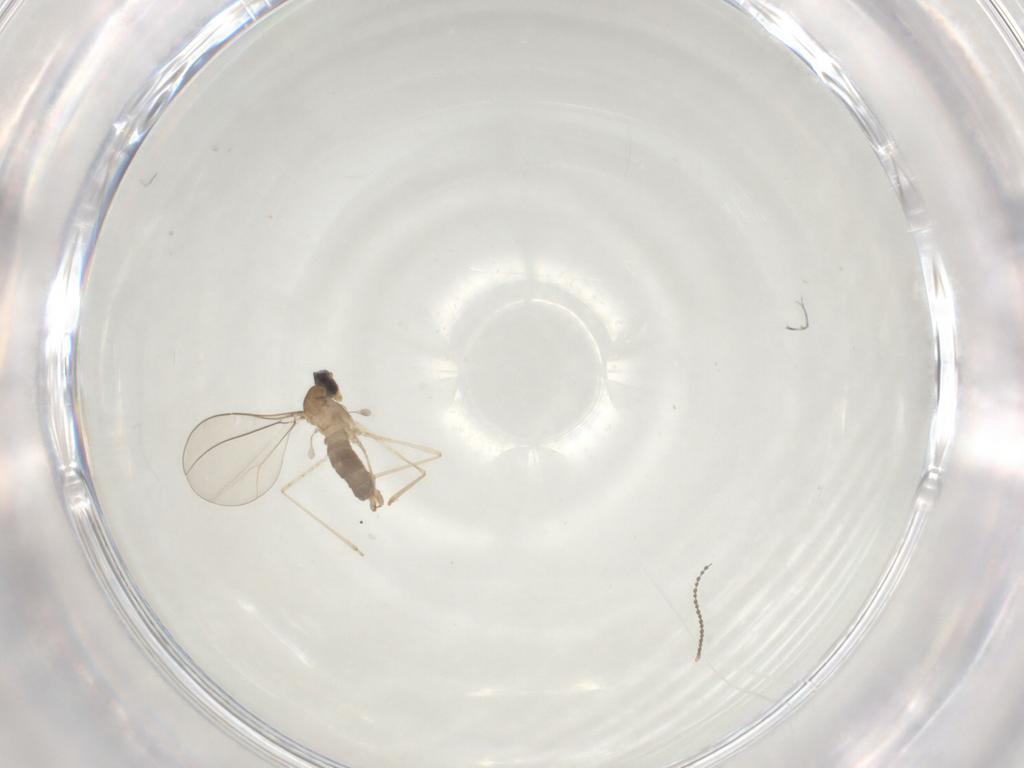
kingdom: Animalia
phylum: Arthropoda
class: Insecta
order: Diptera
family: Cecidomyiidae
